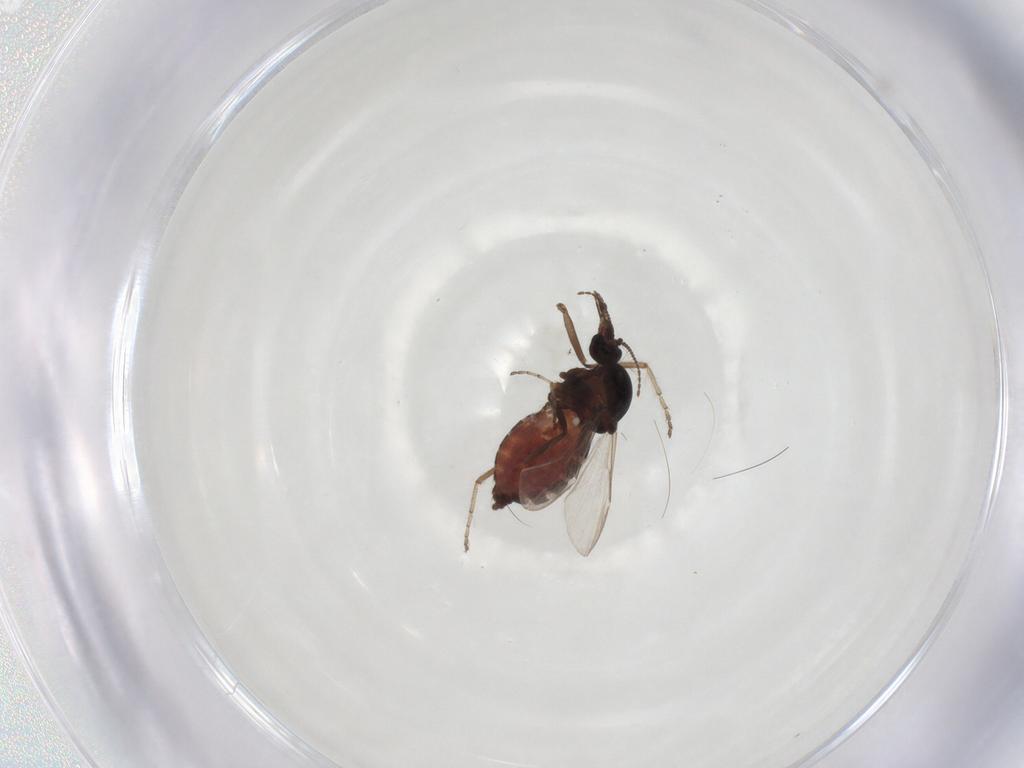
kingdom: Animalia
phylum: Arthropoda
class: Insecta
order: Diptera
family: Ceratopogonidae
